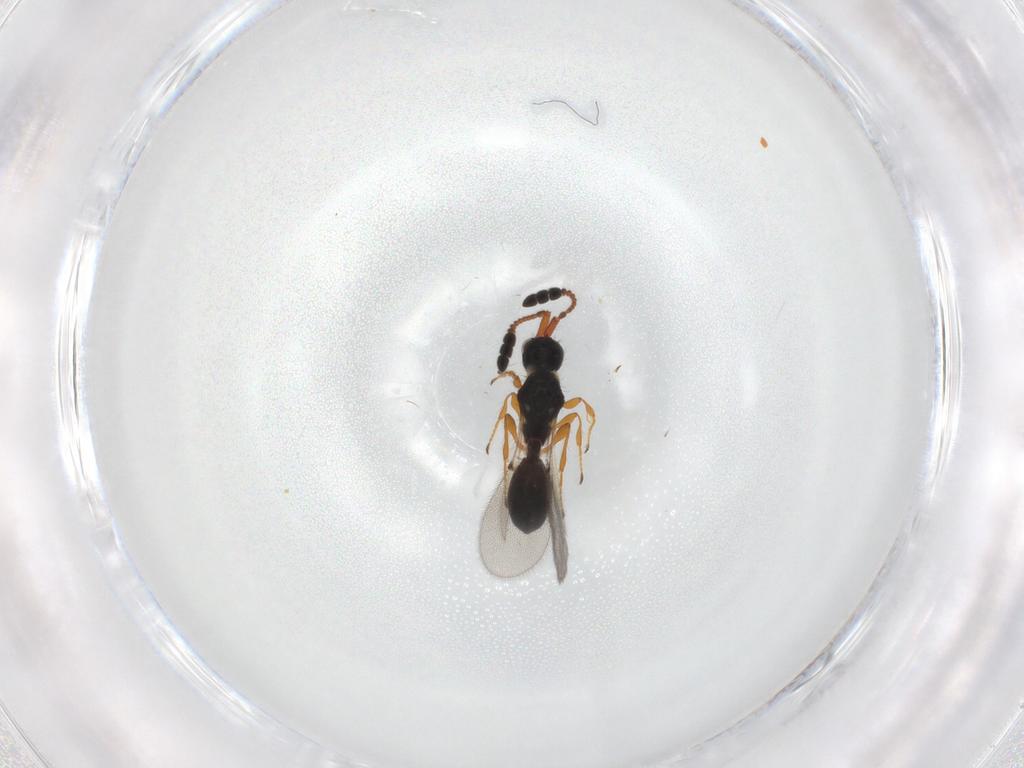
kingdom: Animalia
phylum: Arthropoda
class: Insecta
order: Hymenoptera
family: Diapriidae
